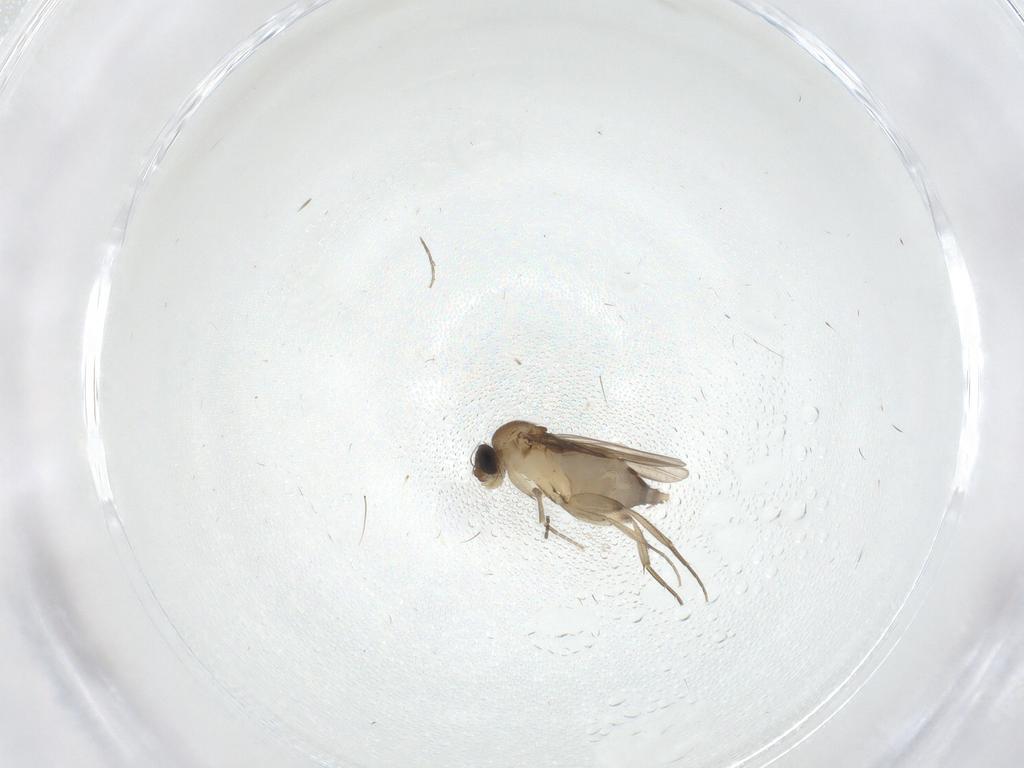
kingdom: Animalia
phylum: Arthropoda
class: Insecta
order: Diptera
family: Phoridae
